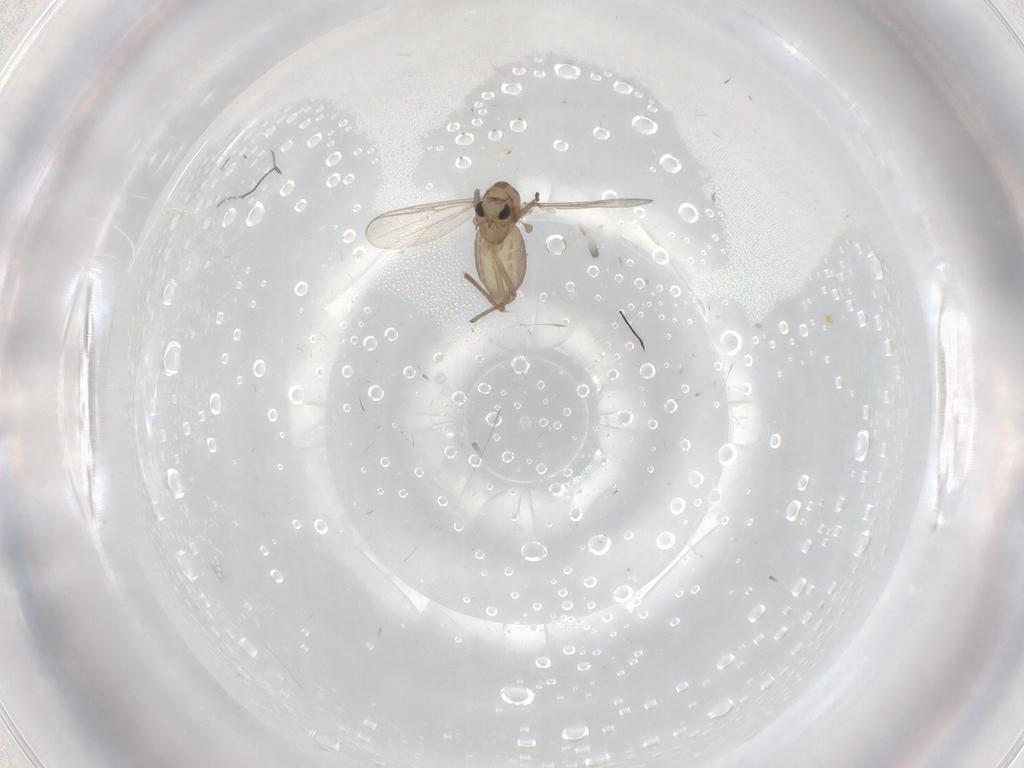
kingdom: Animalia
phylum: Arthropoda
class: Insecta
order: Diptera
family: Chironomidae
